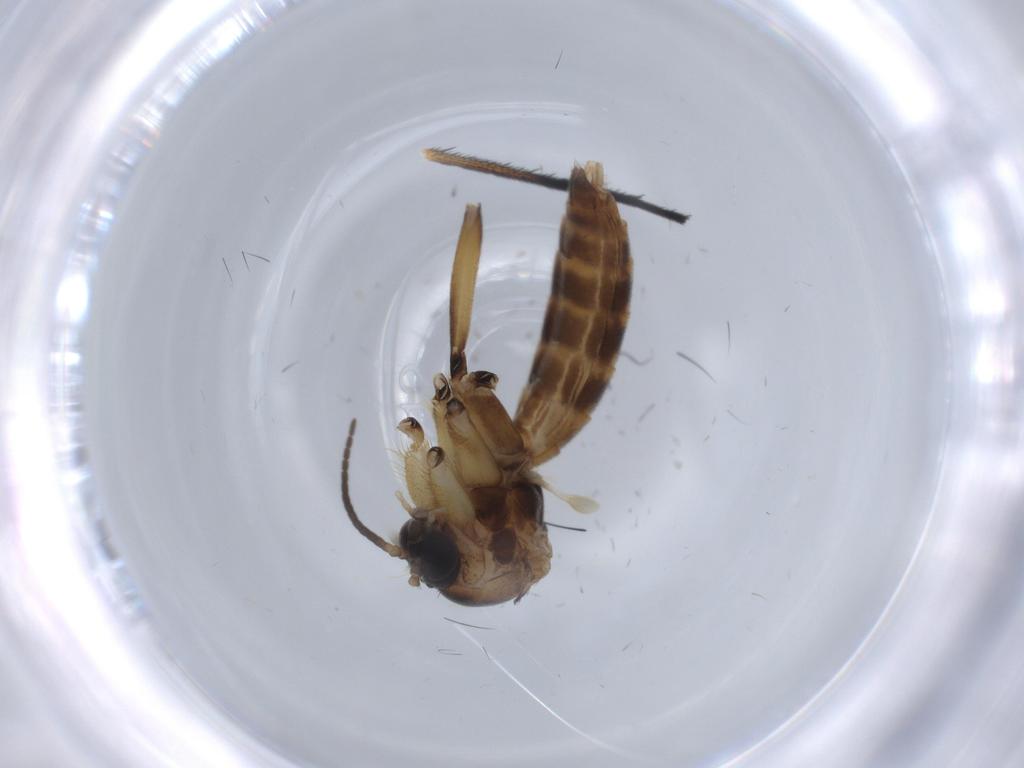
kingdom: Animalia
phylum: Arthropoda
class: Insecta
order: Diptera
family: Mycetophilidae
